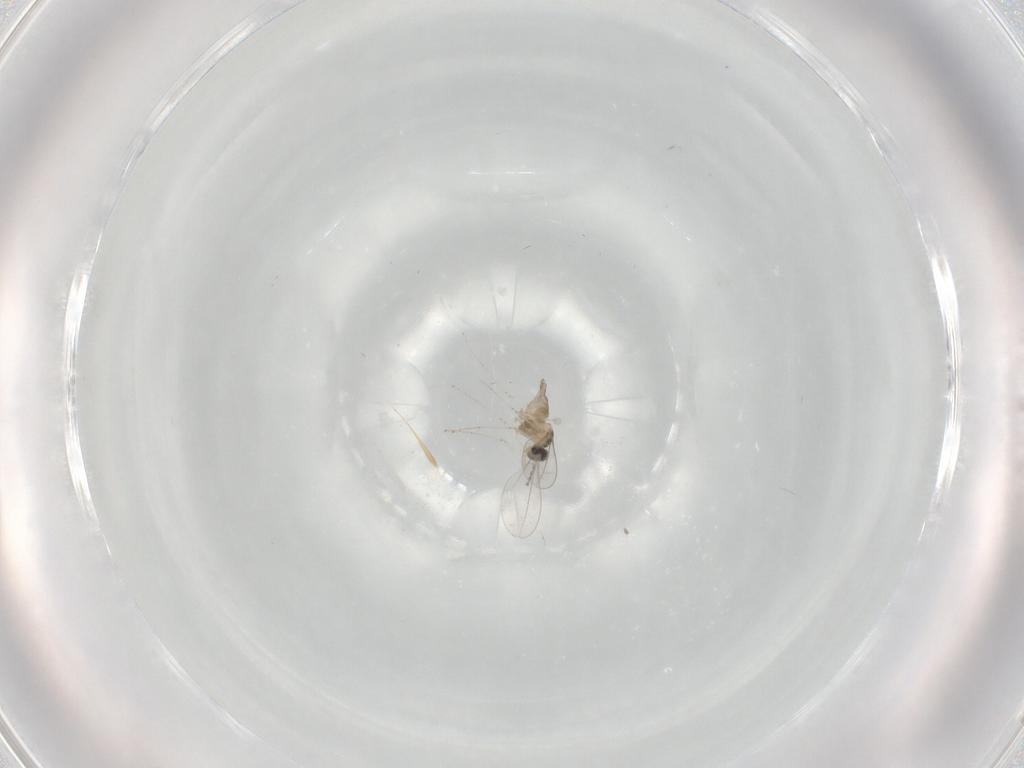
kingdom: Animalia
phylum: Arthropoda
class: Insecta
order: Diptera
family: Cecidomyiidae
